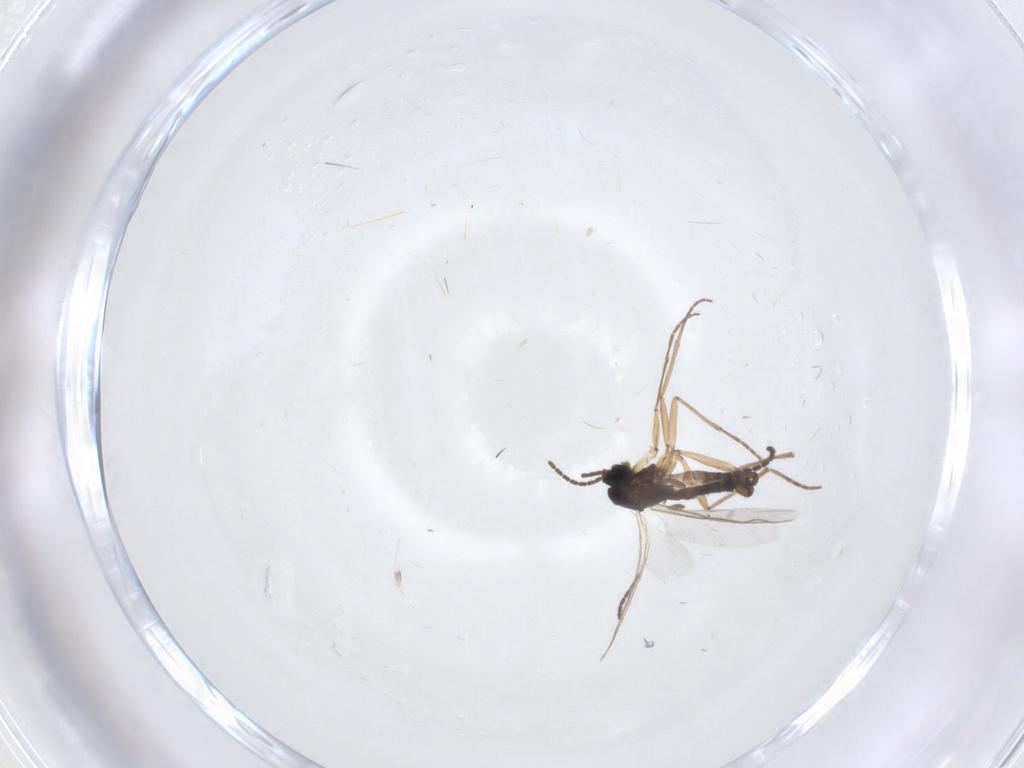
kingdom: Animalia
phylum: Arthropoda
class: Insecta
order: Diptera
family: Sciaridae
